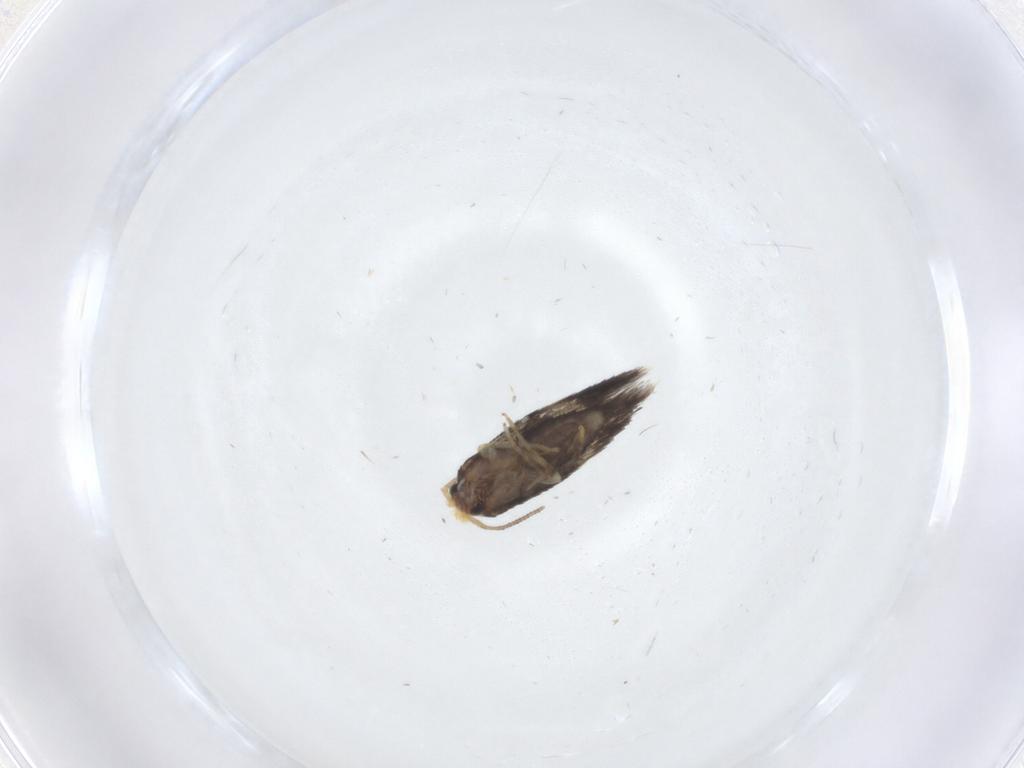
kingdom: Animalia
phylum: Arthropoda
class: Insecta
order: Lepidoptera
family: Nepticulidae
